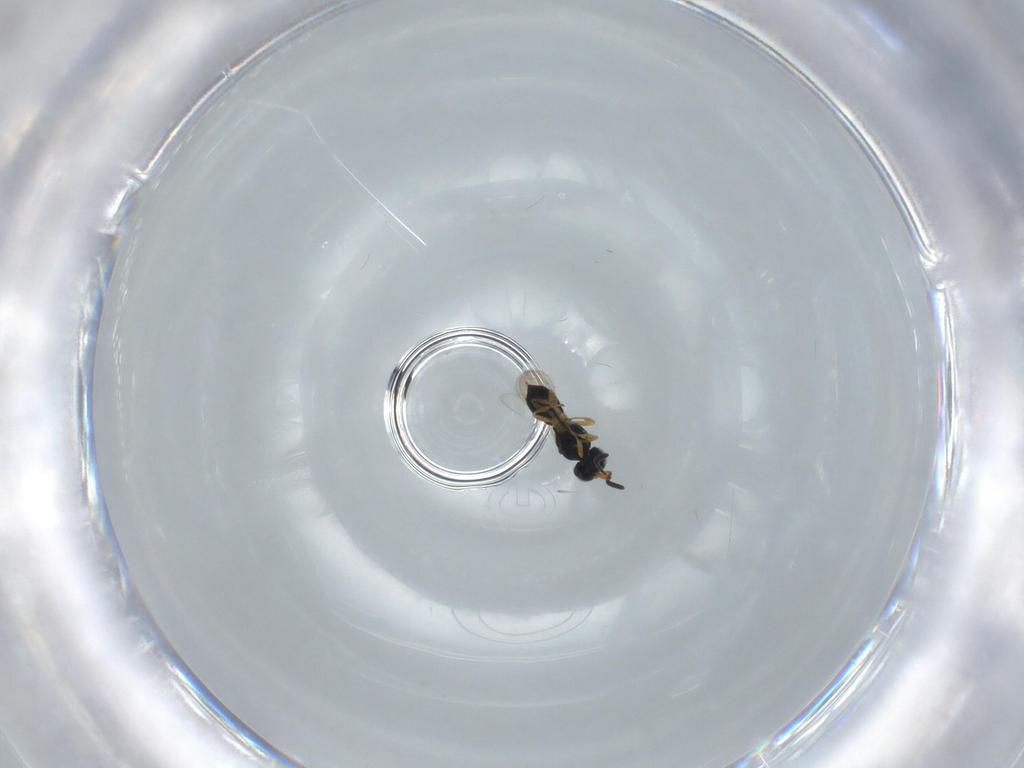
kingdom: Animalia
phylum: Arthropoda
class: Insecta
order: Hymenoptera
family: Scelionidae
